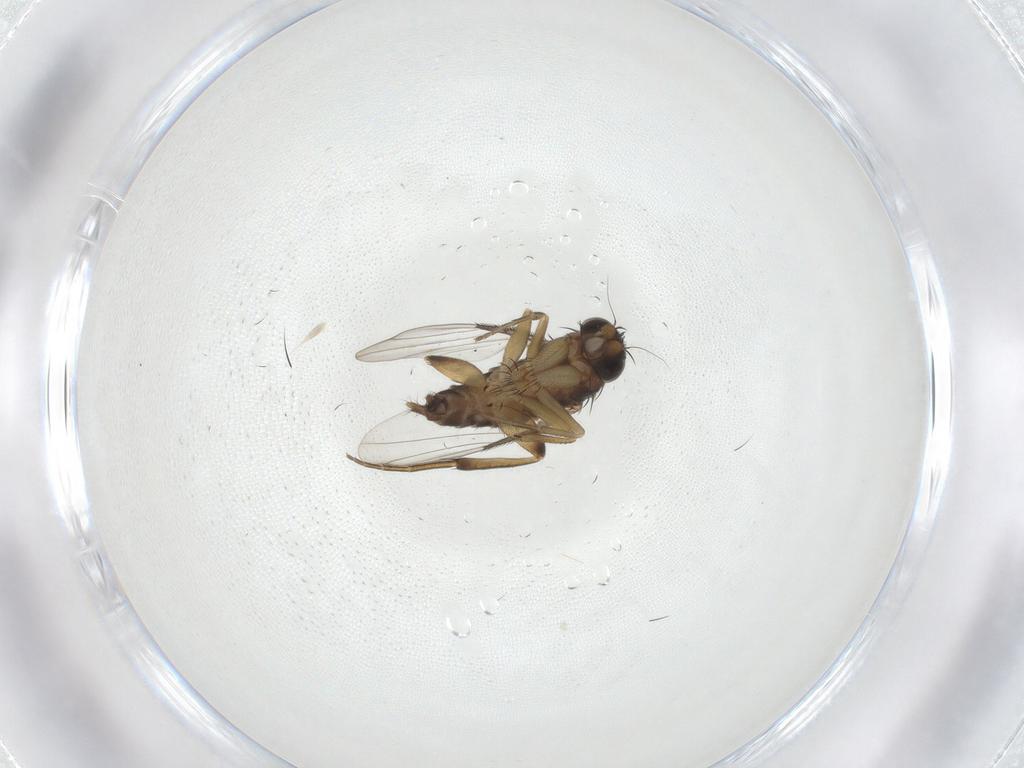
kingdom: Animalia
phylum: Arthropoda
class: Insecta
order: Diptera
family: Phoridae
